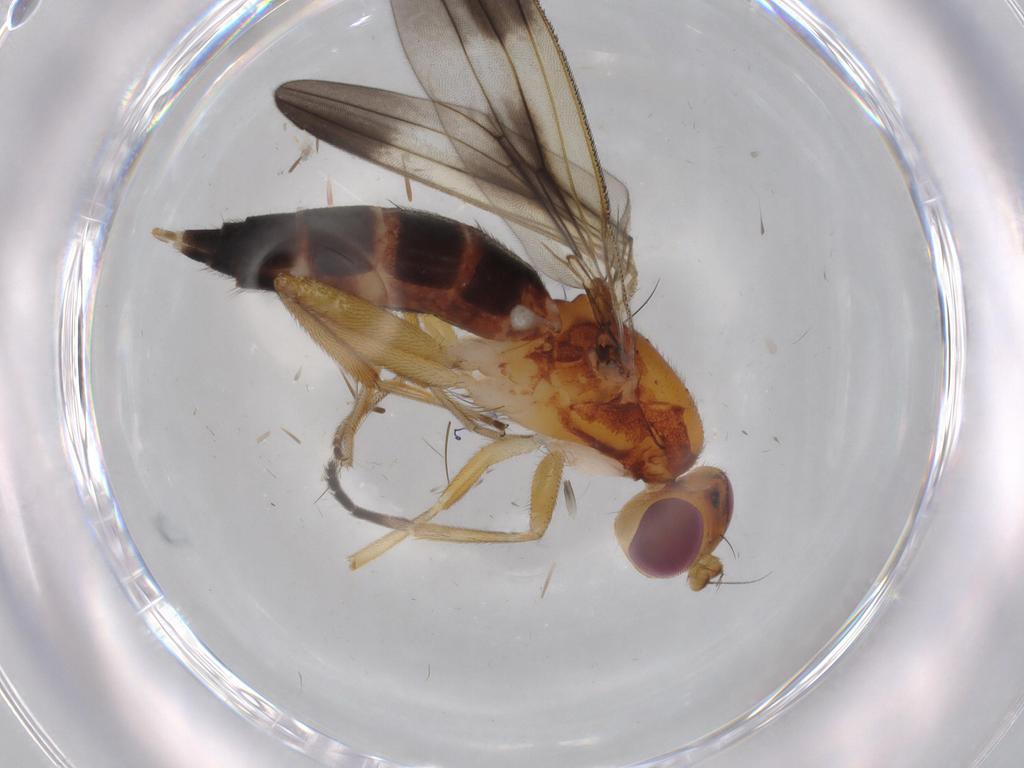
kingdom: Animalia
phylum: Arthropoda
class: Insecta
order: Diptera
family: Clusiidae
